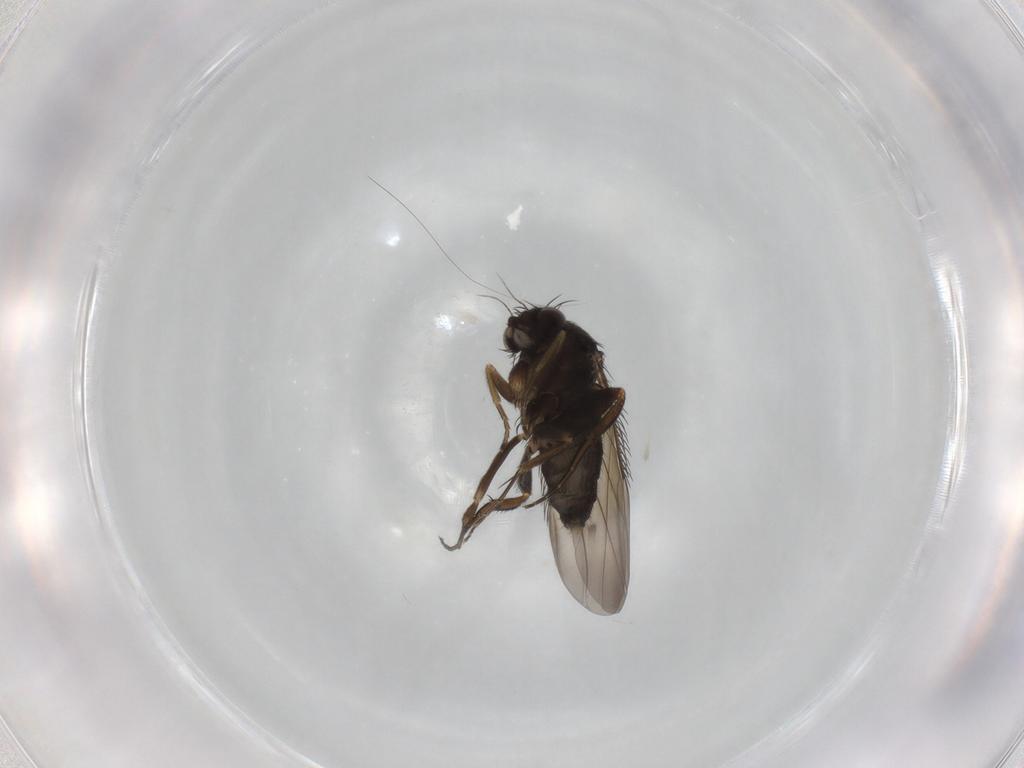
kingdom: Animalia
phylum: Arthropoda
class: Insecta
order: Diptera
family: Phoridae
